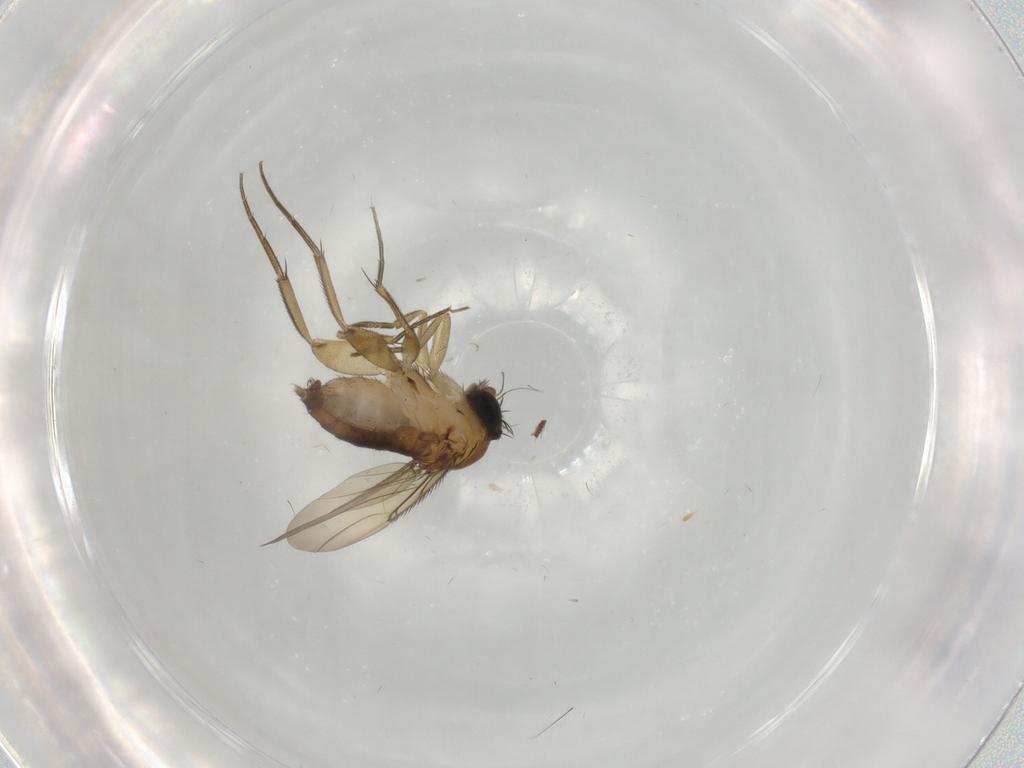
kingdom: Animalia
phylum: Arthropoda
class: Insecta
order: Diptera
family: Phoridae
